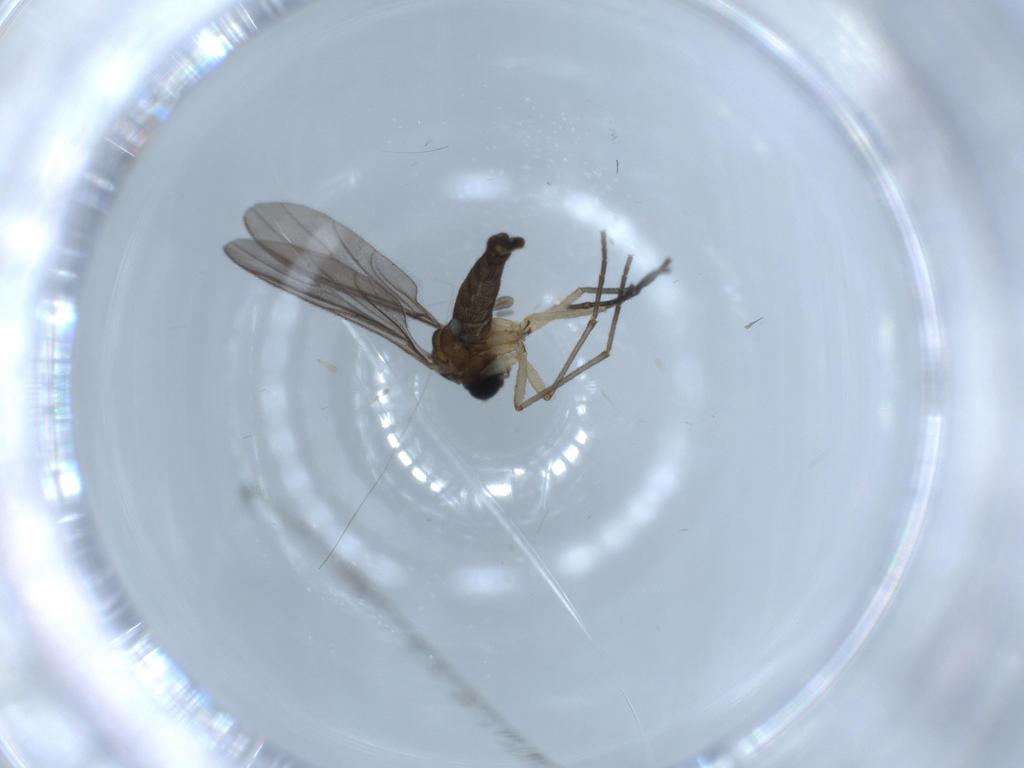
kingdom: Animalia
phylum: Arthropoda
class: Insecta
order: Diptera
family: Sciaridae
